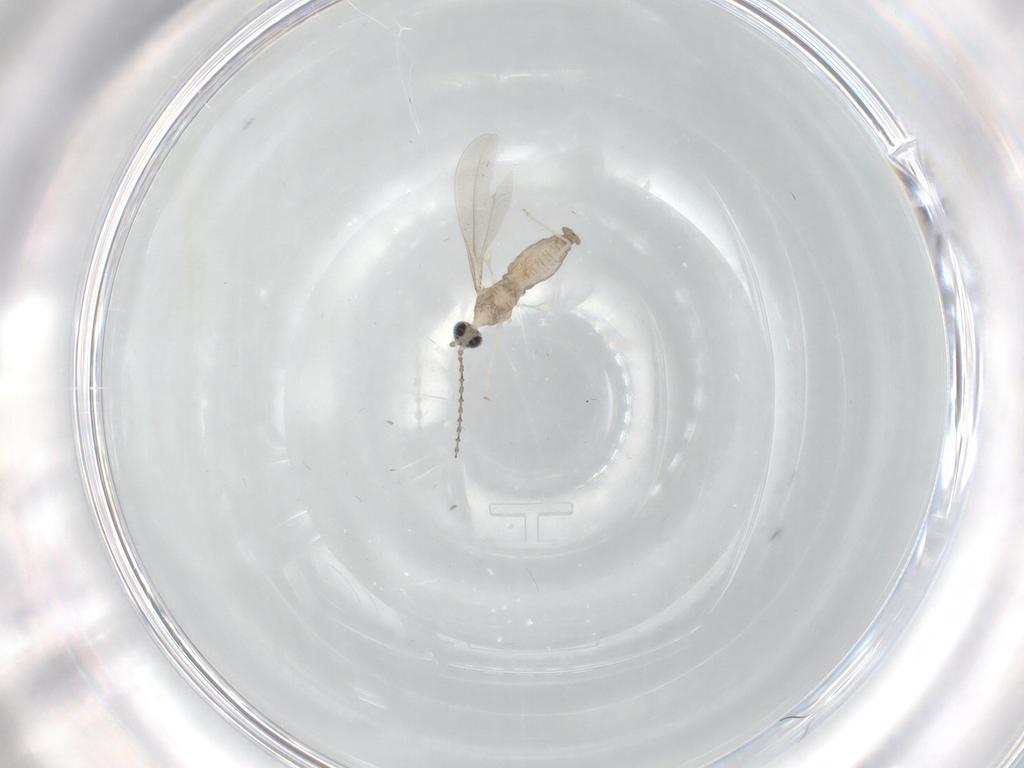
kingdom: Animalia
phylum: Arthropoda
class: Insecta
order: Diptera
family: Cecidomyiidae
